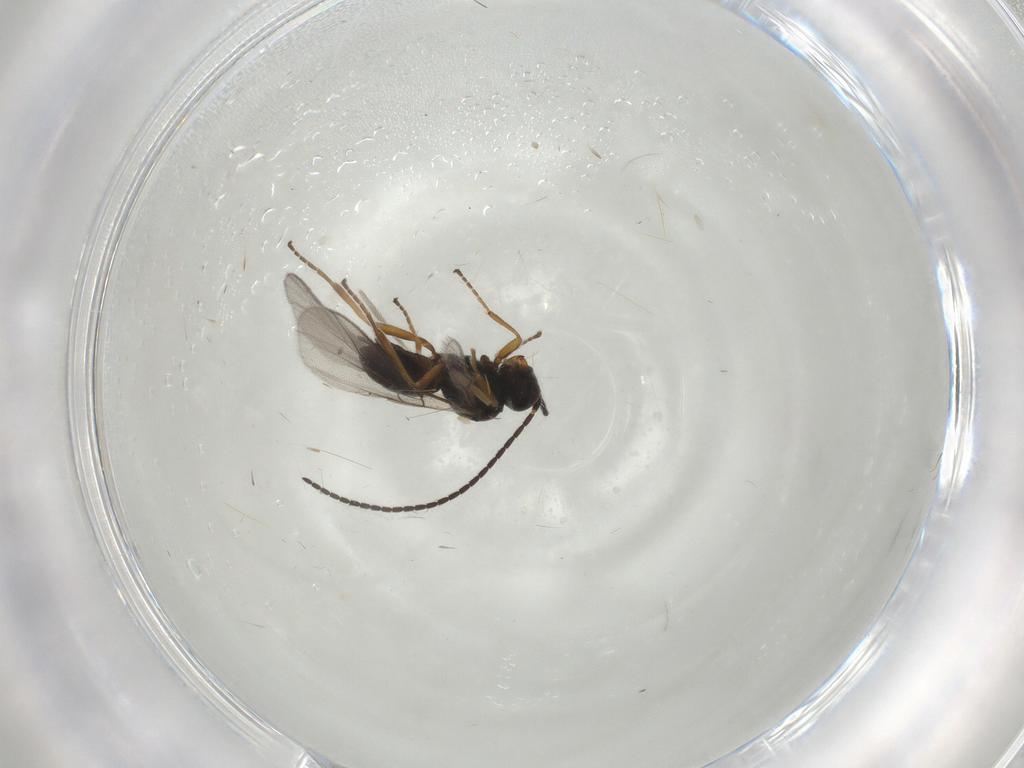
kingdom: Animalia
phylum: Arthropoda
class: Insecta
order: Hymenoptera
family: Braconidae
